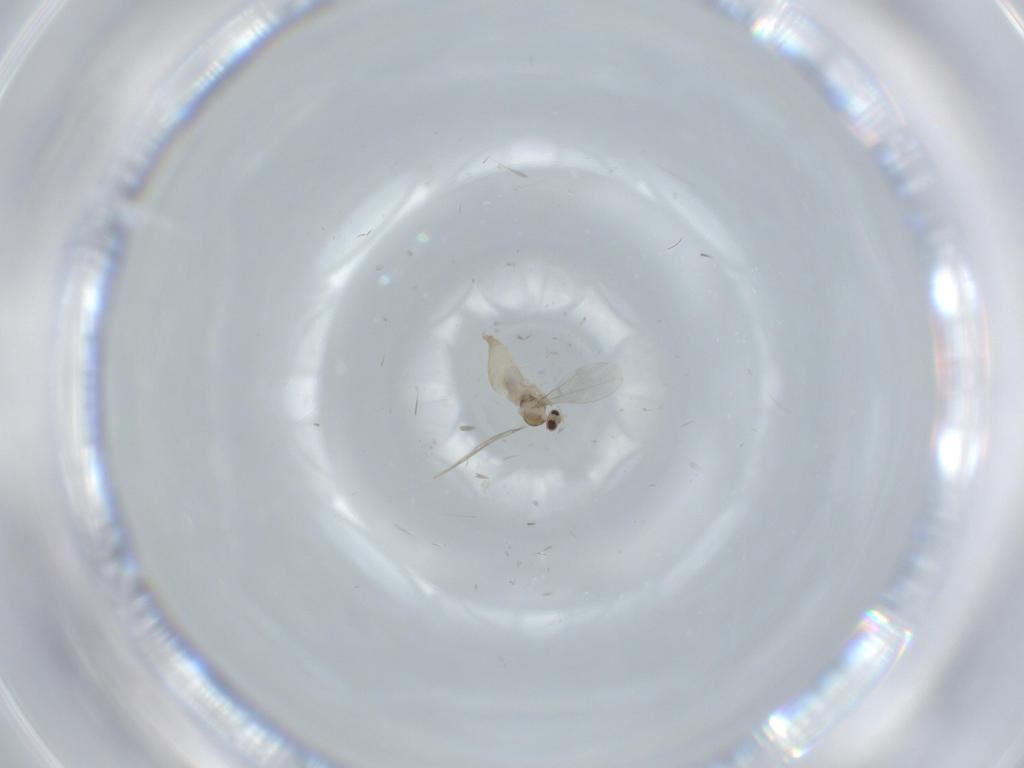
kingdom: Animalia
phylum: Arthropoda
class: Insecta
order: Diptera
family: Cecidomyiidae
